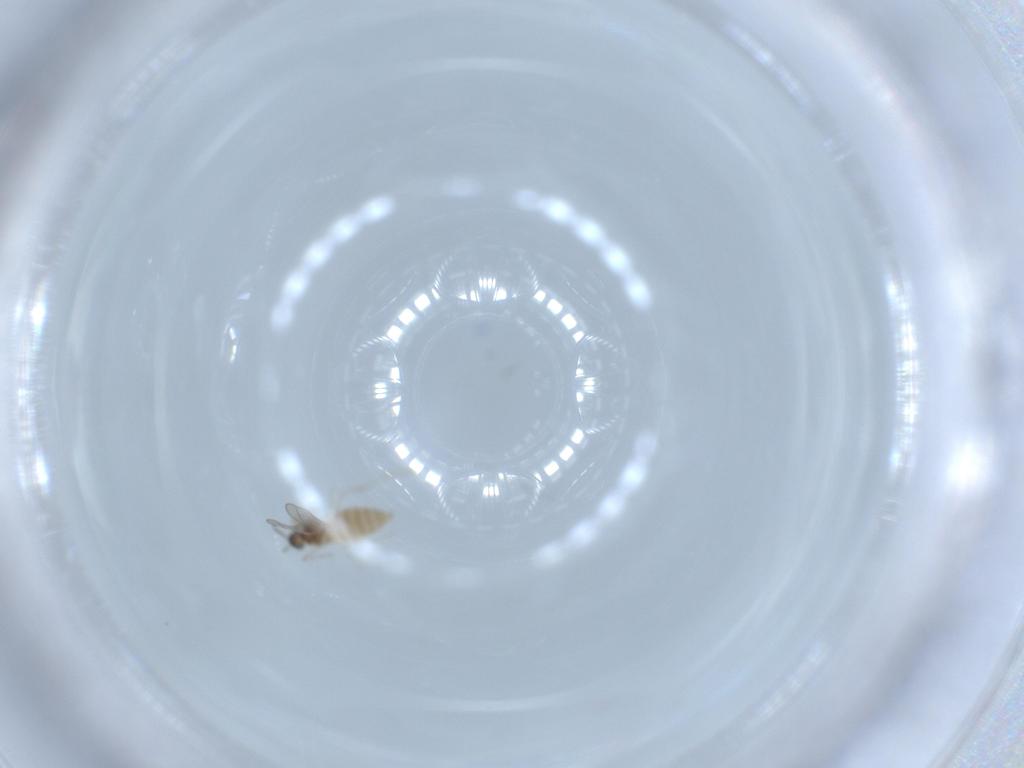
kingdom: Animalia
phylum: Arthropoda
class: Insecta
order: Diptera
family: Cecidomyiidae
